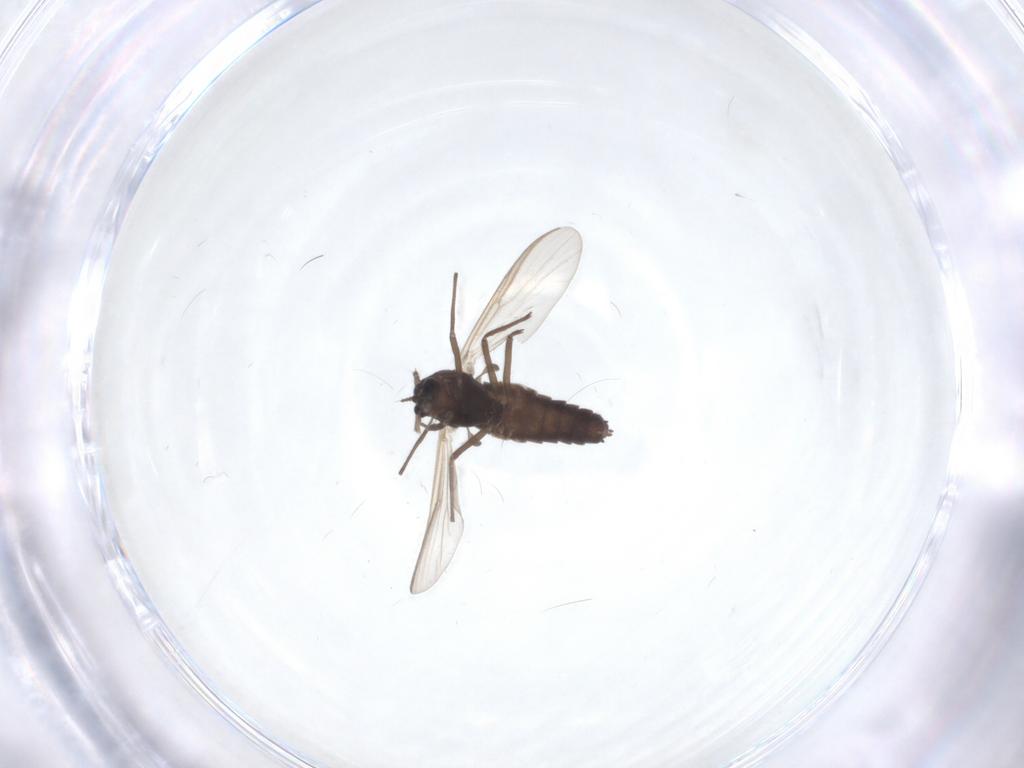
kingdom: Animalia
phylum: Arthropoda
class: Insecta
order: Diptera
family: Chironomidae
